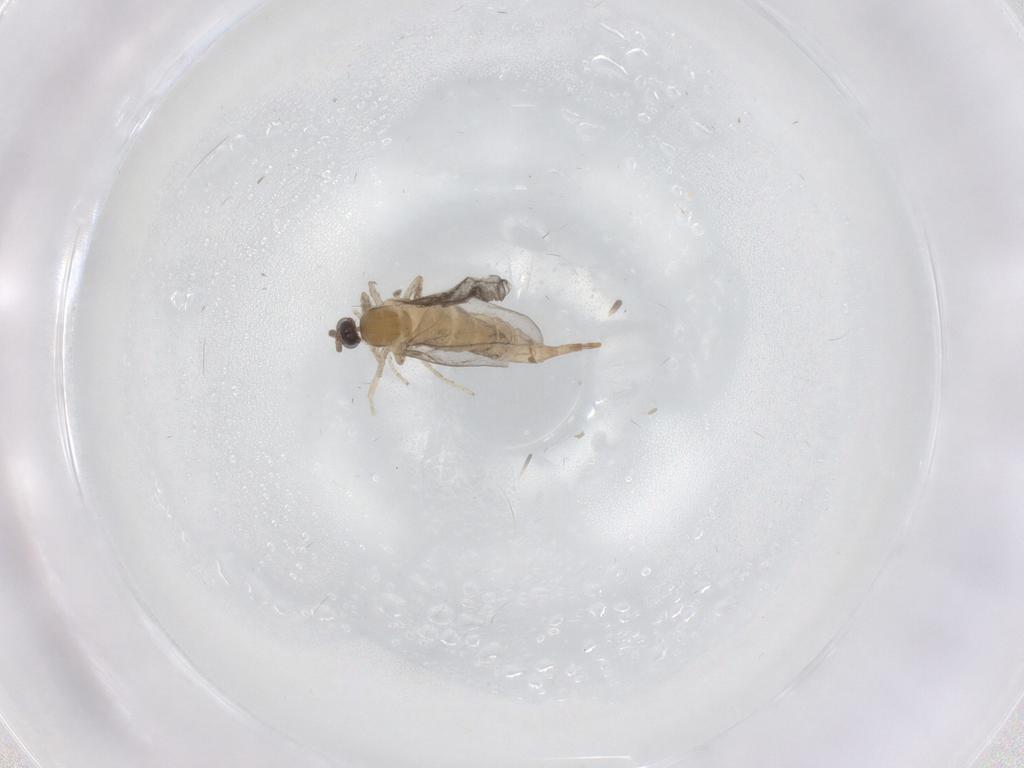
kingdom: Animalia
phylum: Arthropoda
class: Insecta
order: Diptera
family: Cecidomyiidae
